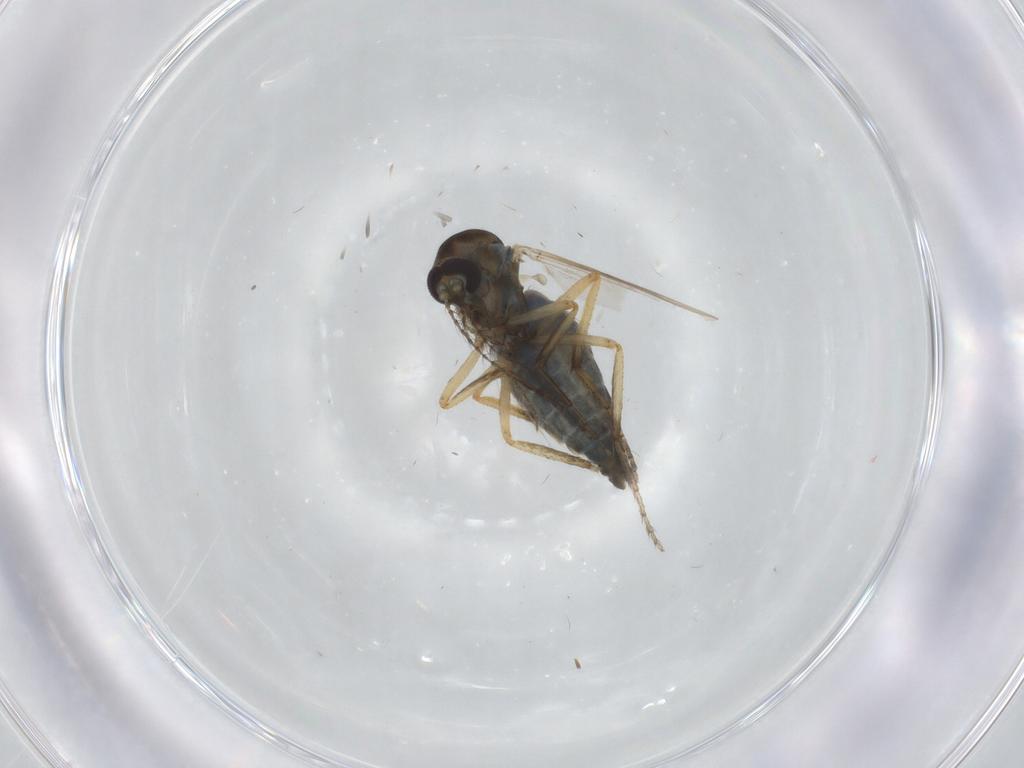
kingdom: Animalia
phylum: Arthropoda
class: Insecta
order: Diptera
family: Ceratopogonidae
